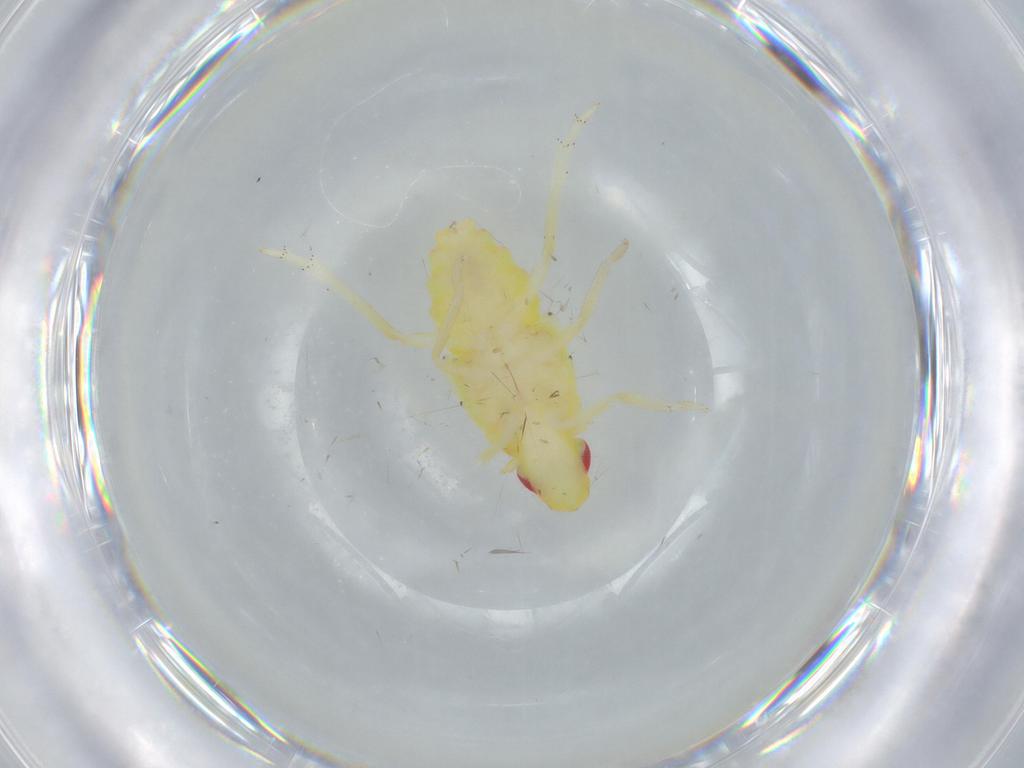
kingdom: Animalia
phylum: Arthropoda
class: Insecta
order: Hemiptera
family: Tropiduchidae
